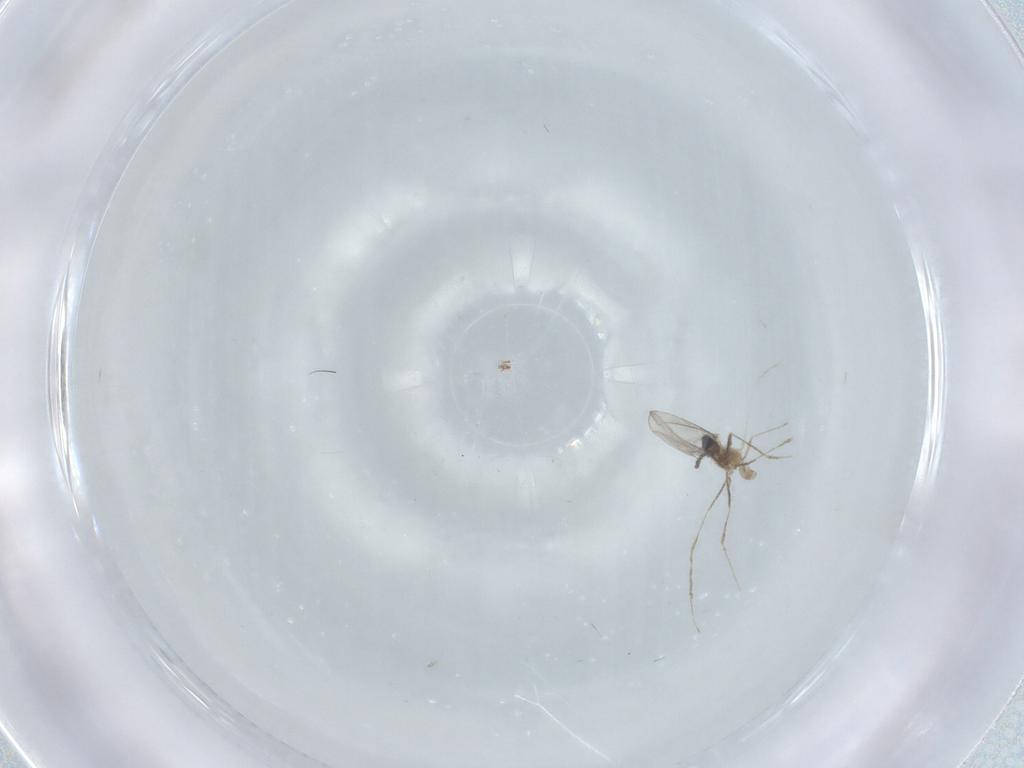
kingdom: Animalia
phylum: Arthropoda
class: Insecta
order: Diptera
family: Cecidomyiidae
